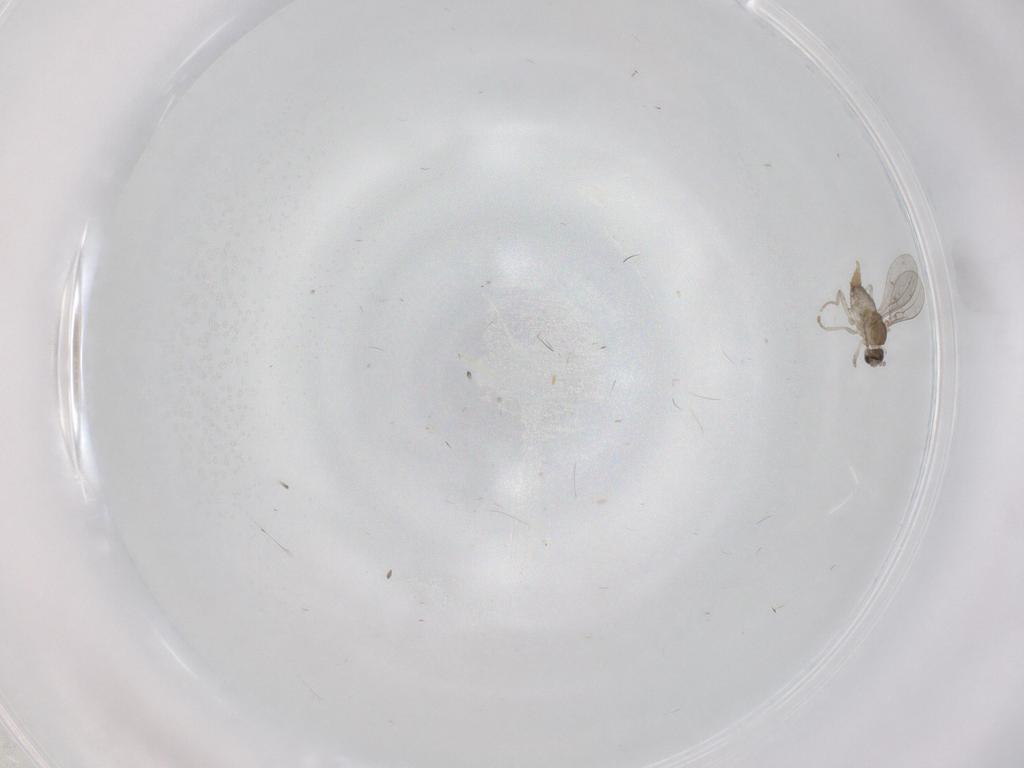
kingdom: Animalia
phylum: Arthropoda
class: Insecta
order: Diptera
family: Cecidomyiidae
